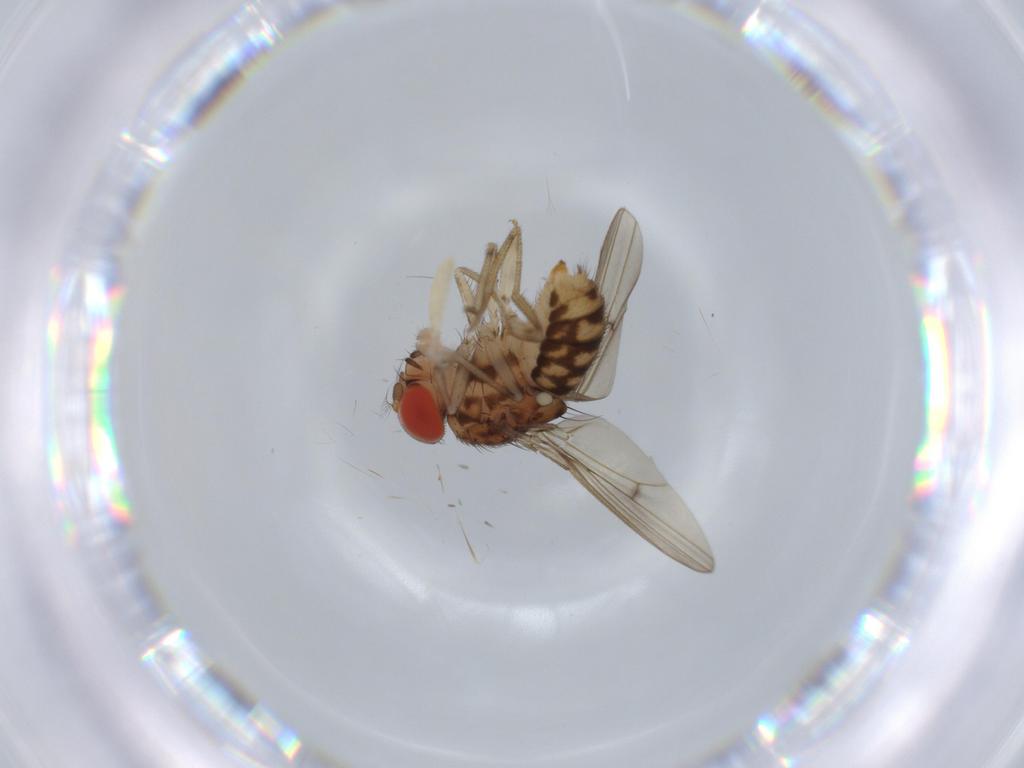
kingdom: Animalia
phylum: Arthropoda
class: Insecta
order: Diptera
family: Drosophilidae
